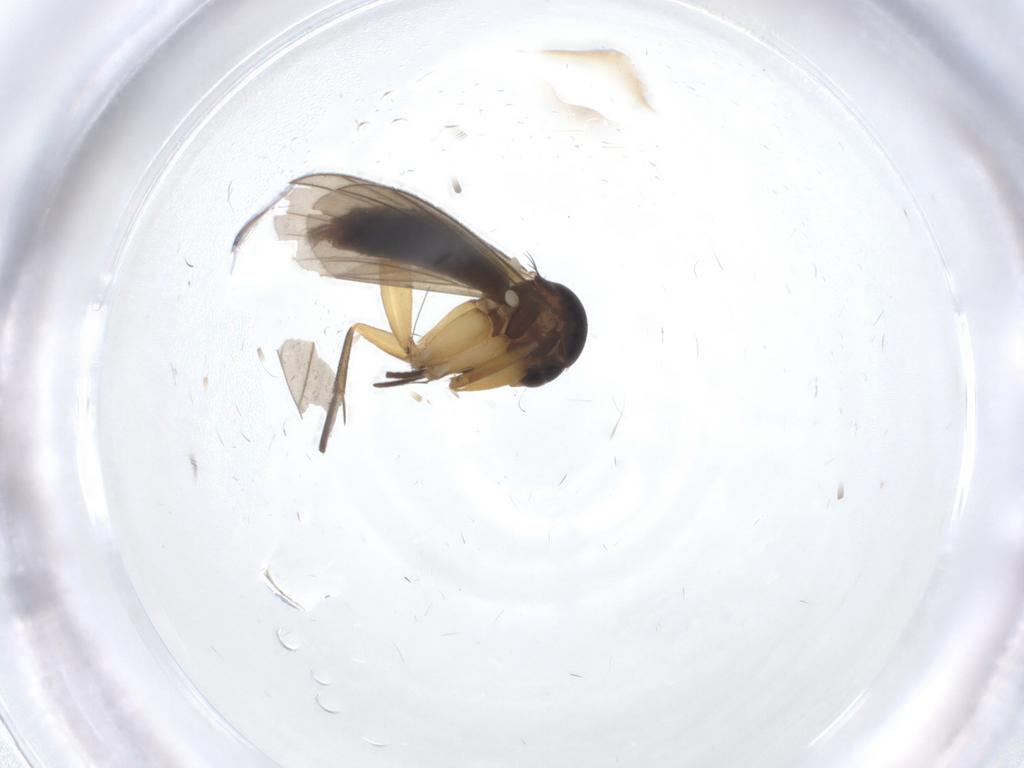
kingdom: Animalia
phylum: Arthropoda
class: Insecta
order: Diptera
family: Mycetophilidae
